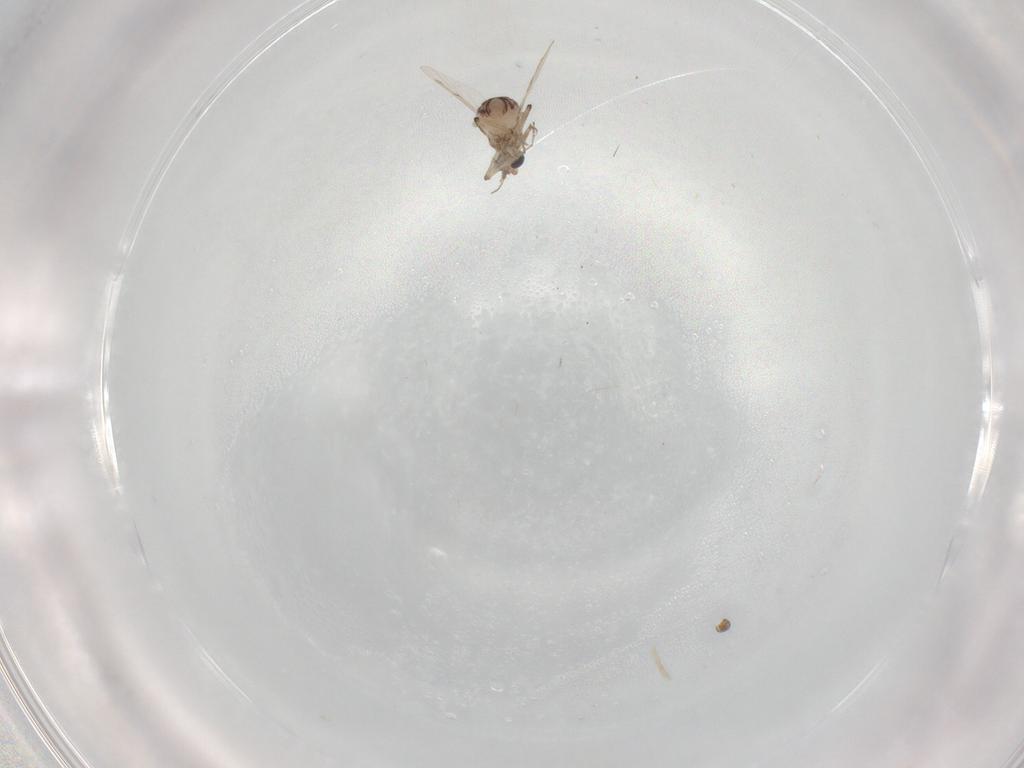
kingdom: Animalia
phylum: Arthropoda
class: Insecta
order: Diptera
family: Ceratopogonidae
